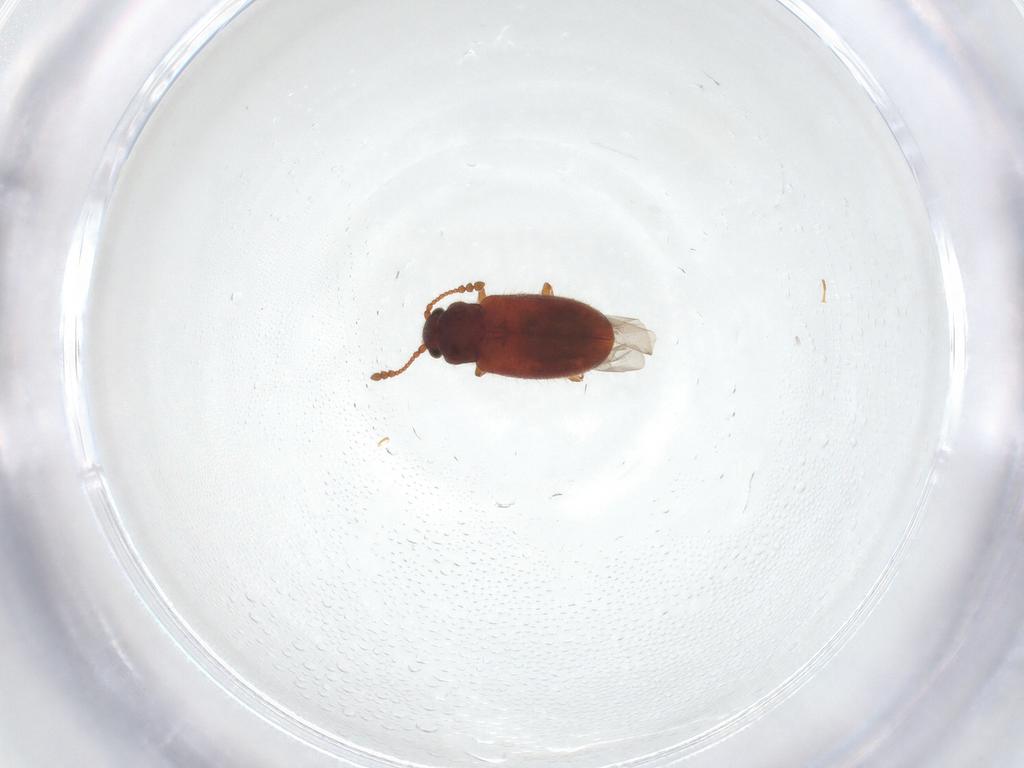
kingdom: Animalia
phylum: Arthropoda
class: Insecta
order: Coleoptera
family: Cryptophagidae
